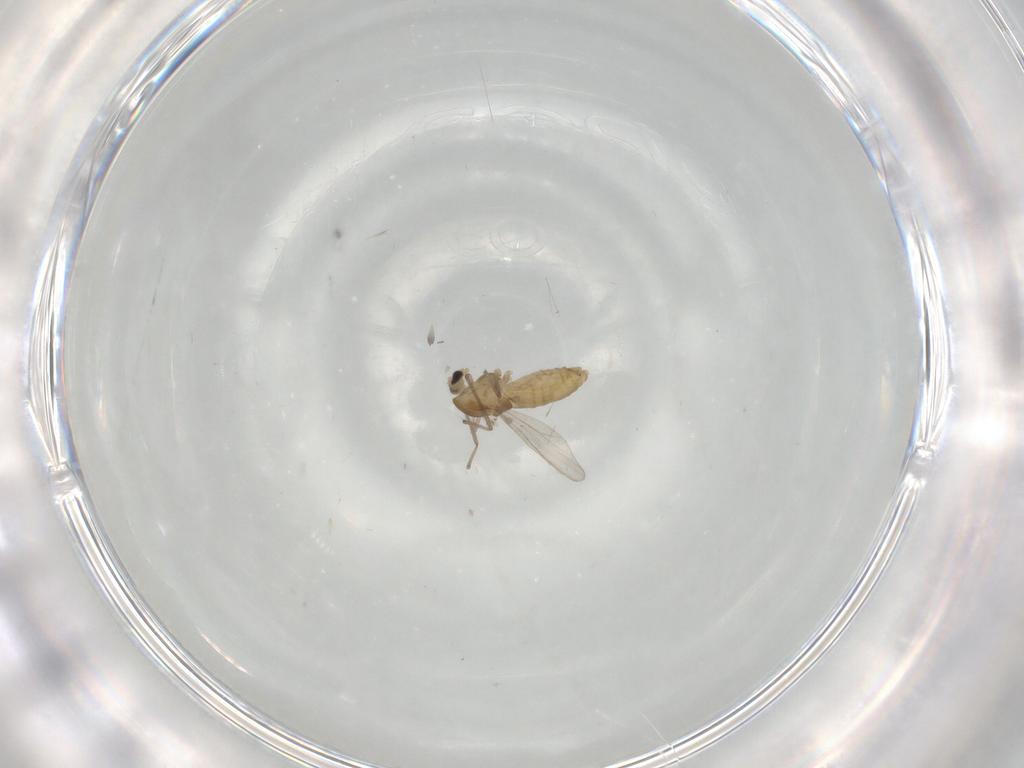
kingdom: Animalia
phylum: Arthropoda
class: Insecta
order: Diptera
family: Chironomidae
